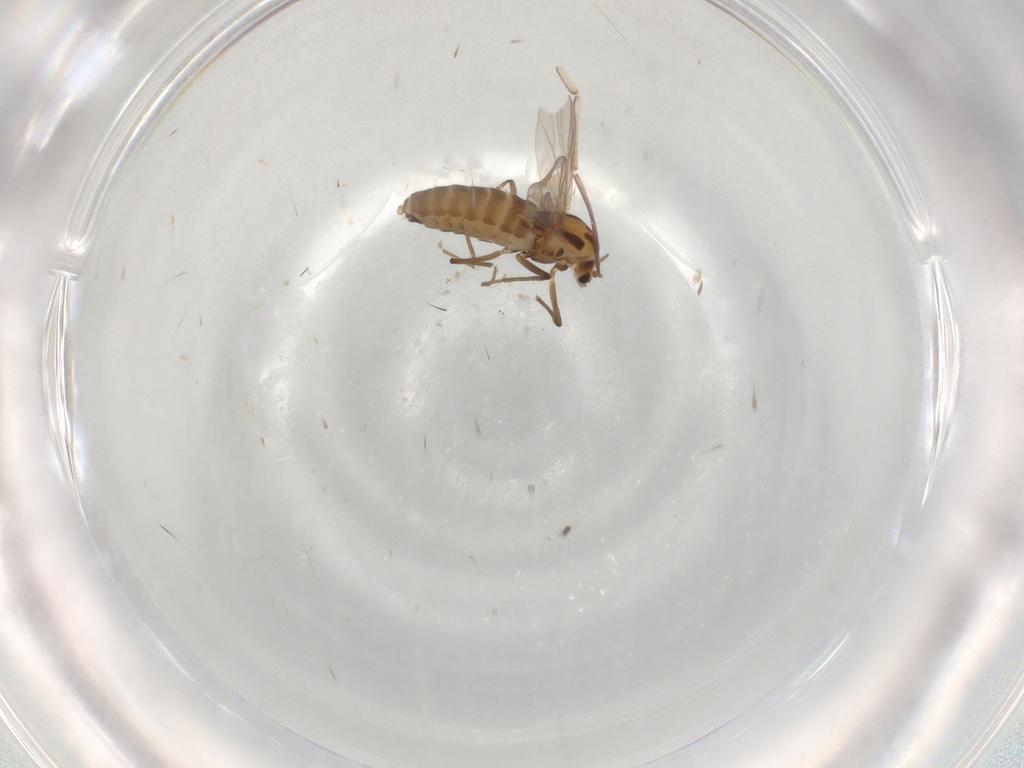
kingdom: Animalia
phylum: Arthropoda
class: Insecta
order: Diptera
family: Chironomidae
